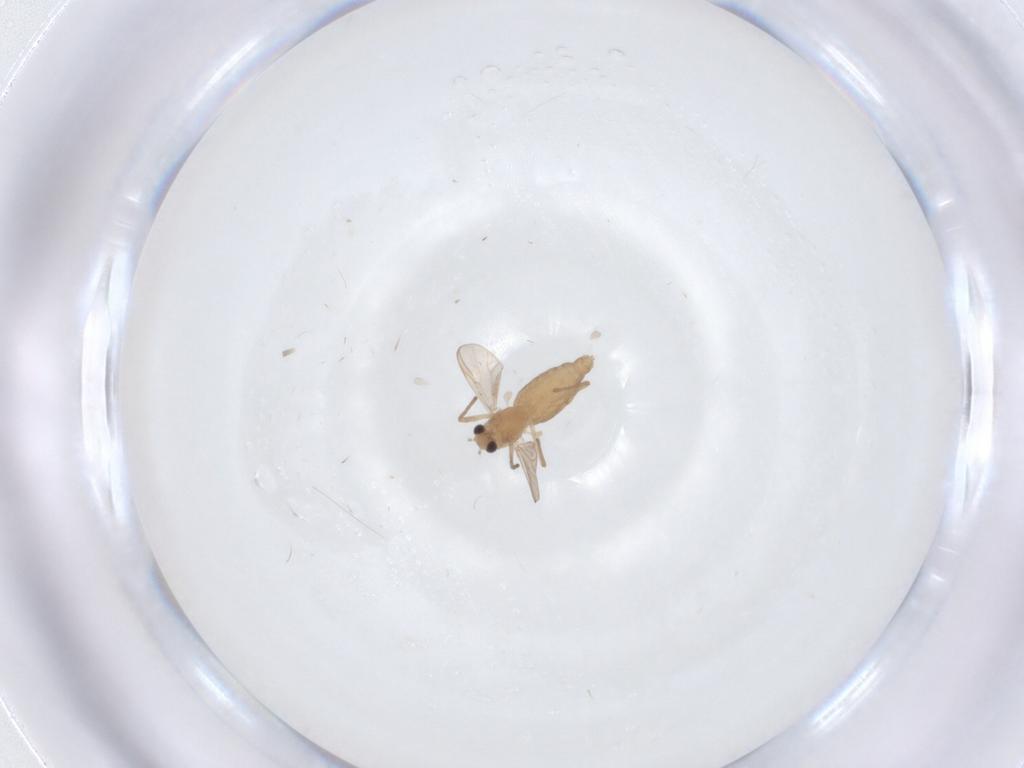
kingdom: Animalia
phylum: Arthropoda
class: Insecta
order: Diptera
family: Chironomidae
